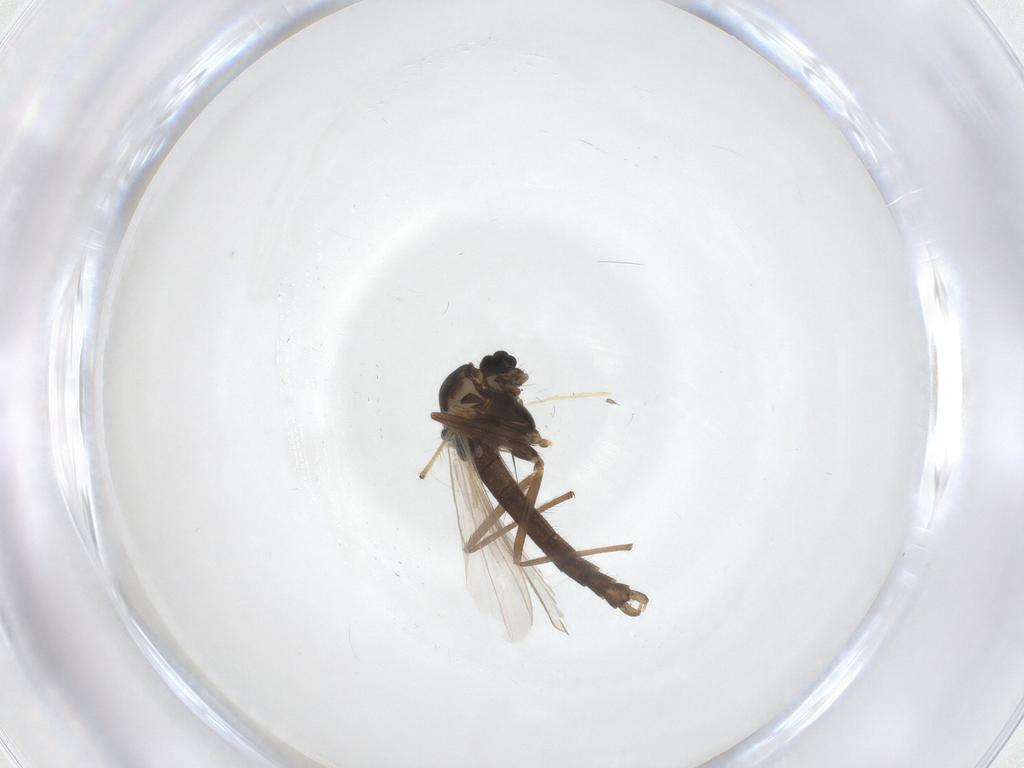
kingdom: Animalia
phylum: Arthropoda
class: Insecta
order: Diptera
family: Chironomidae
